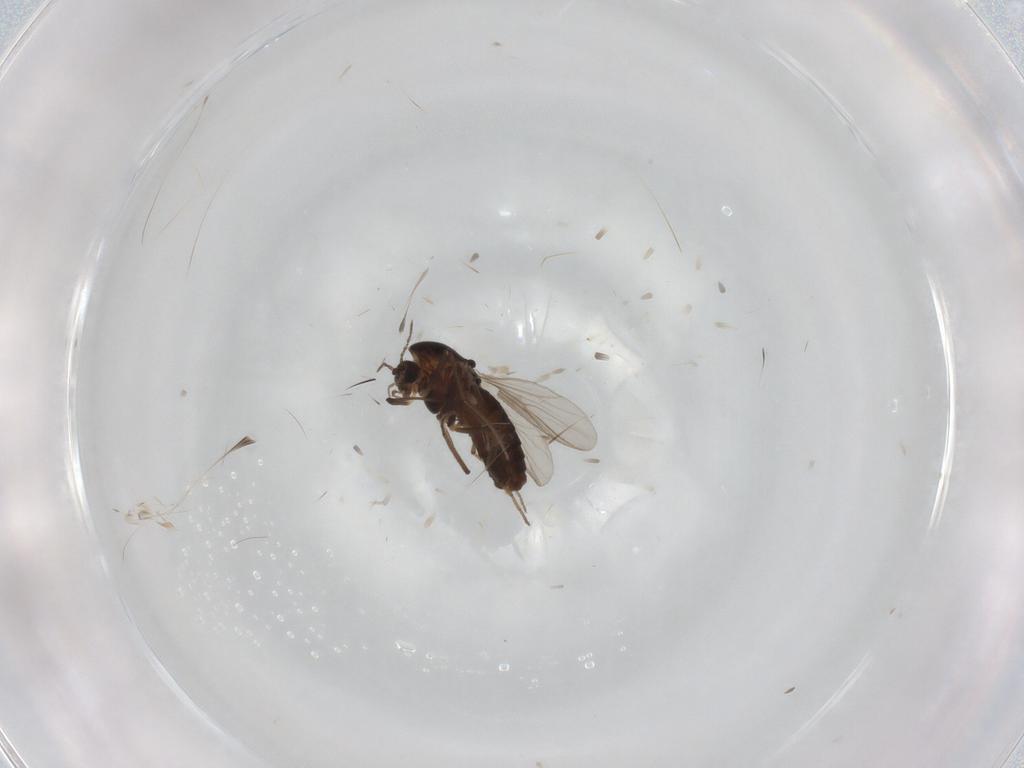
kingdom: Animalia
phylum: Arthropoda
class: Insecta
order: Diptera
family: Chironomidae
